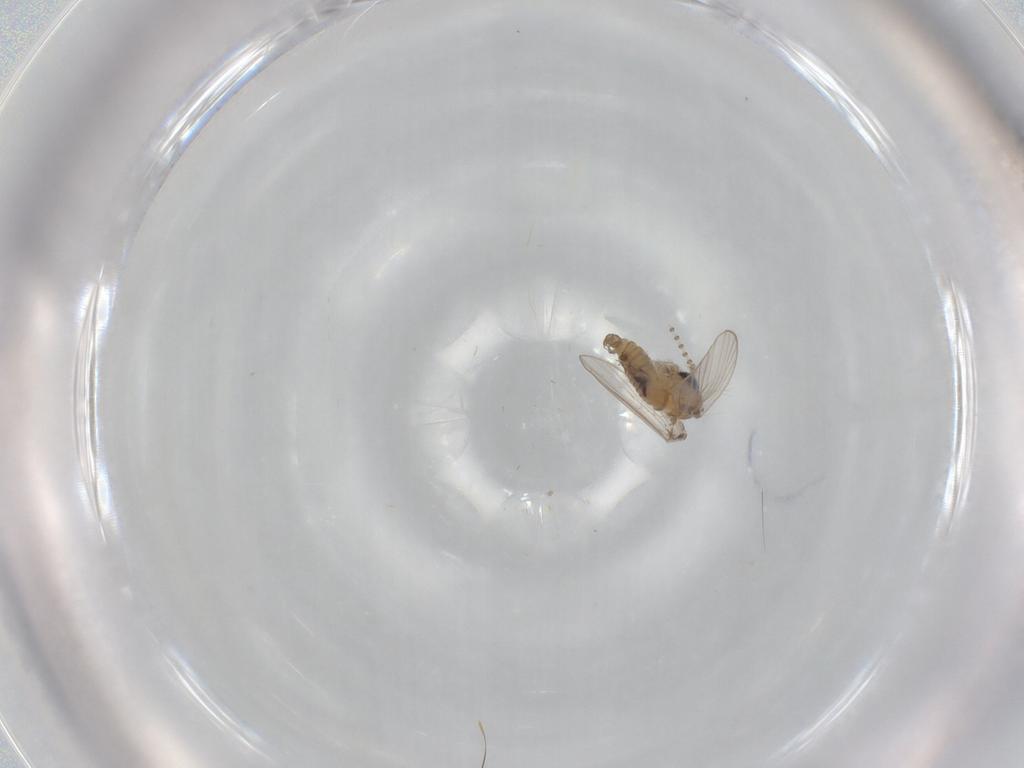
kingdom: Animalia
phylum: Arthropoda
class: Insecta
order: Diptera
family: Psychodidae
